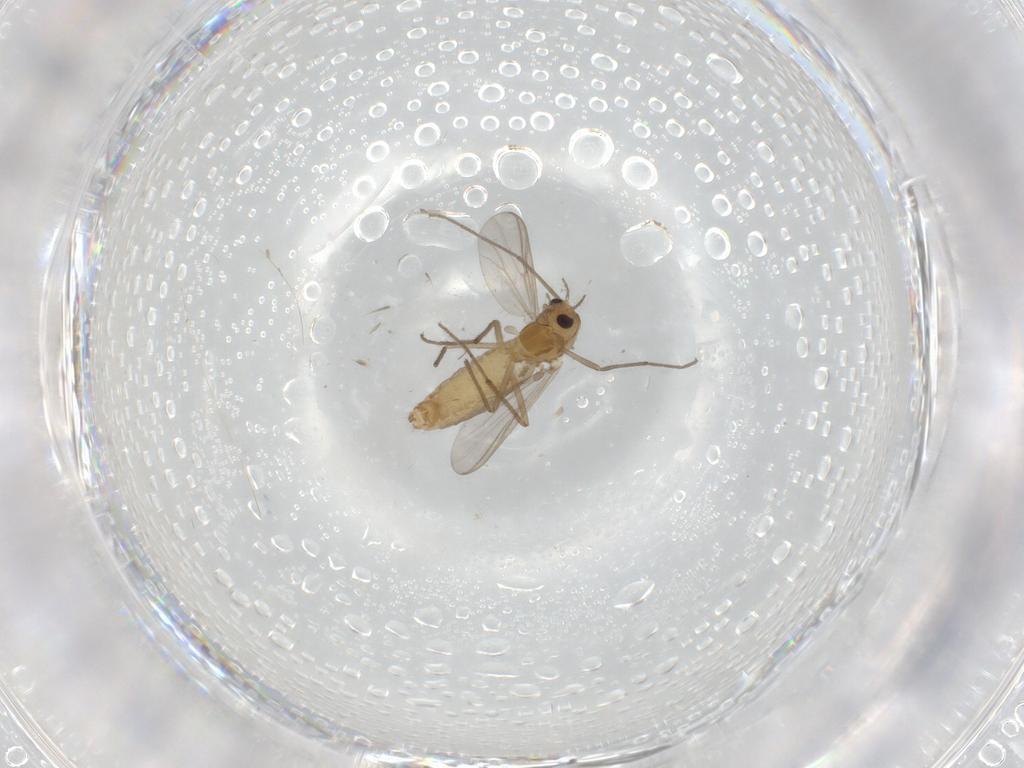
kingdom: Animalia
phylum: Arthropoda
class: Insecta
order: Diptera
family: Chironomidae
